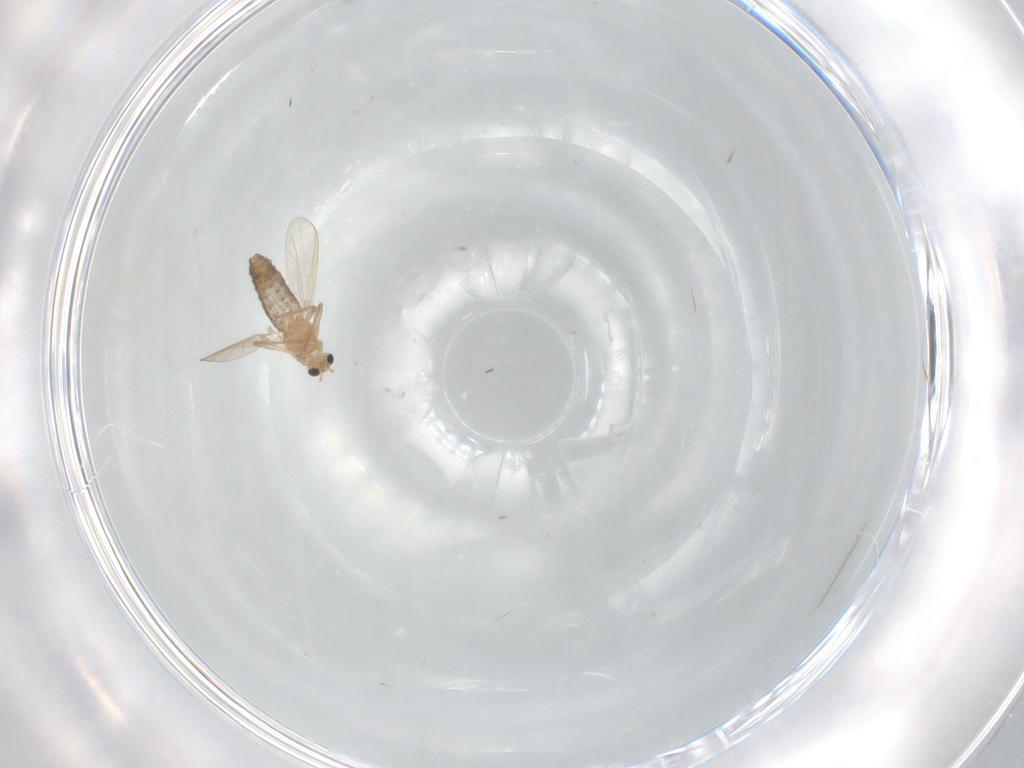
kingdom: Animalia
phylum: Arthropoda
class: Insecta
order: Diptera
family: Chironomidae
